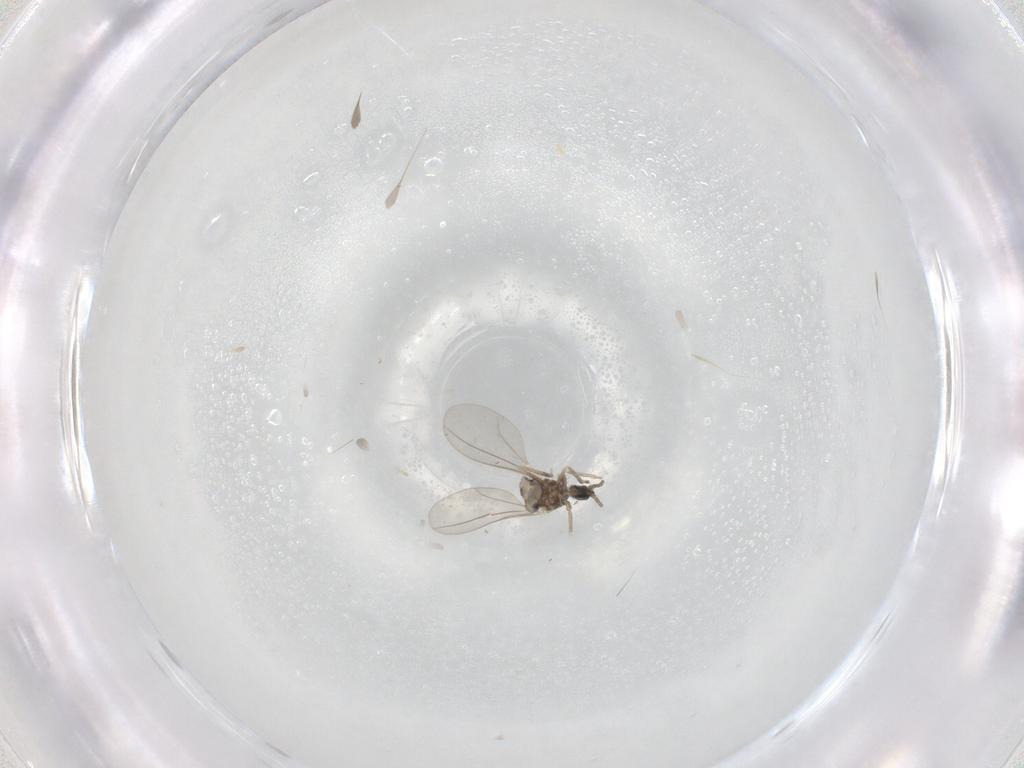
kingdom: Animalia
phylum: Arthropoda
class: Insecta
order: Diptera
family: Cecidomyiidae
